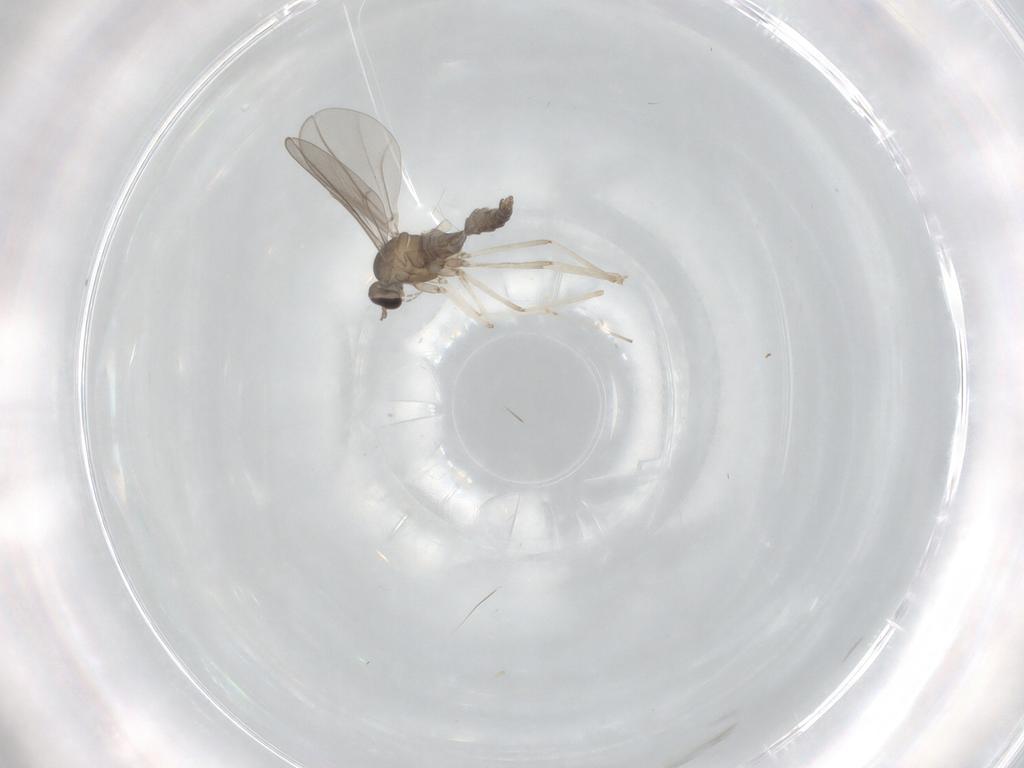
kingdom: Animalia
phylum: Arthropoda
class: Insecta
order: Diptera
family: Cecidomyiidae
